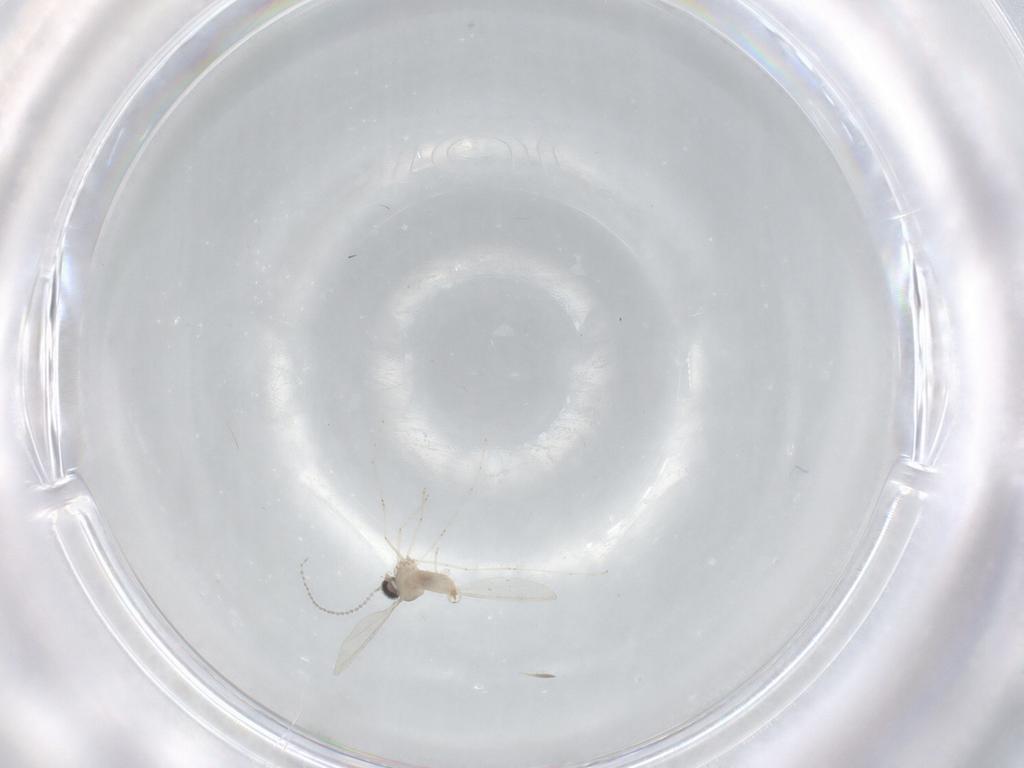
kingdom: Animalia
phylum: Arthropoda
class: Insecta
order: Diptera
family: Cecidomyiidae
